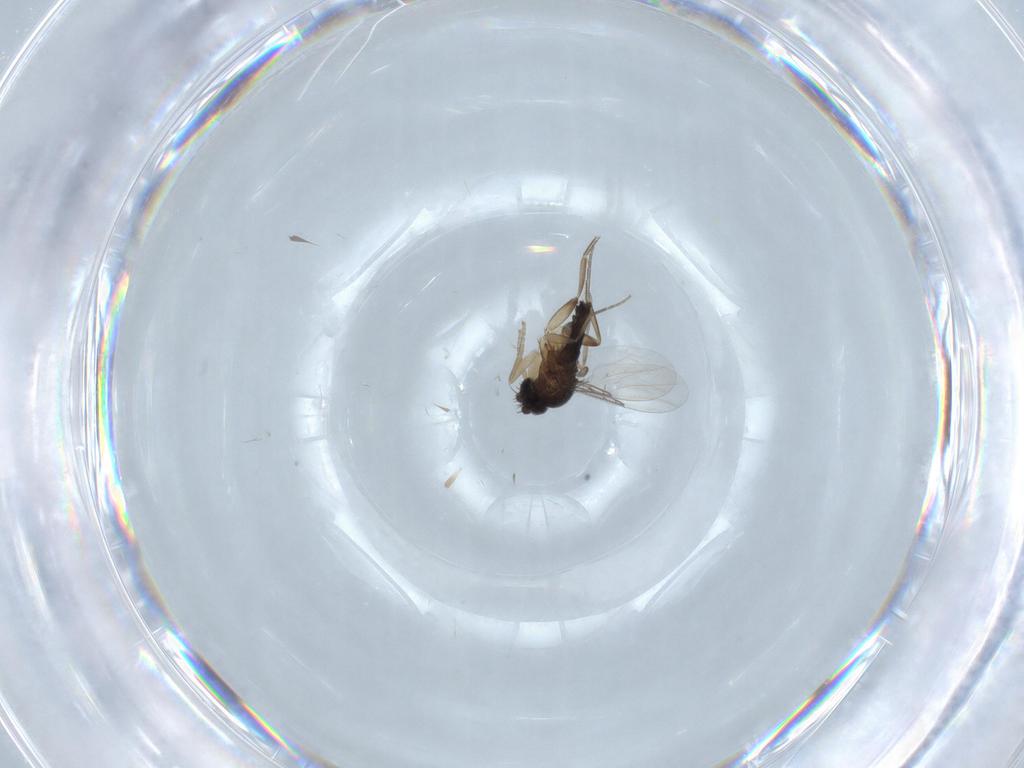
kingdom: Animalia
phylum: Arthropoda
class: Insecta
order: Diptera
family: Phoridae
